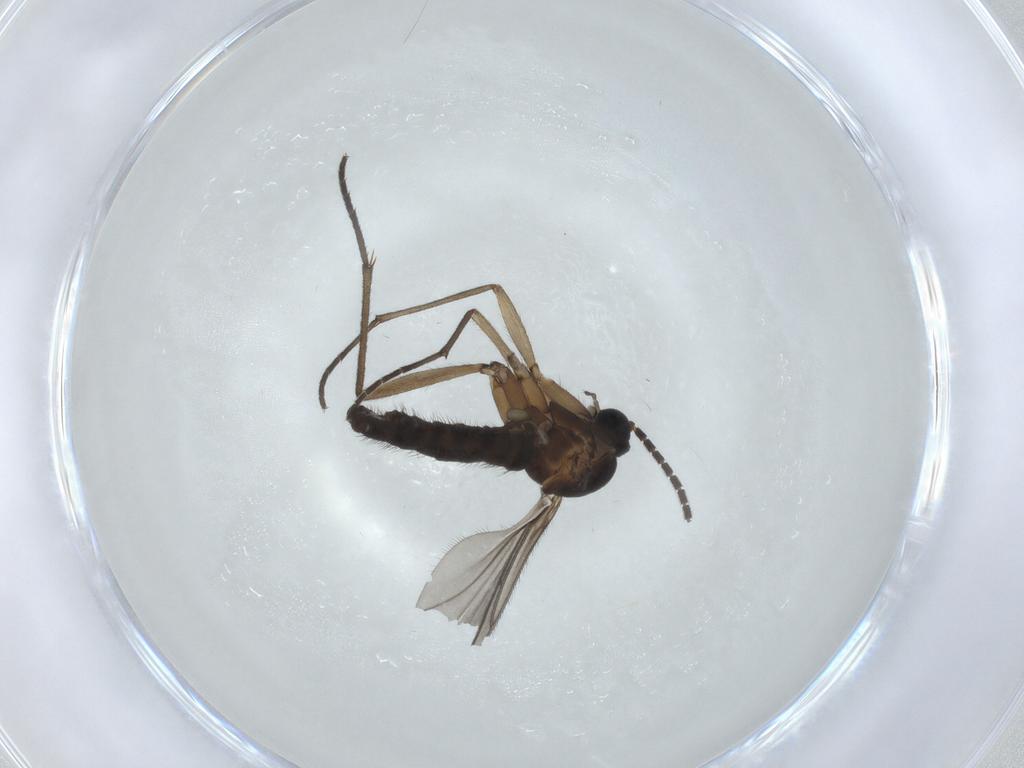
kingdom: Animalia
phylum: Arthropoda
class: Insecta
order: Diptera
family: Sciaridae
